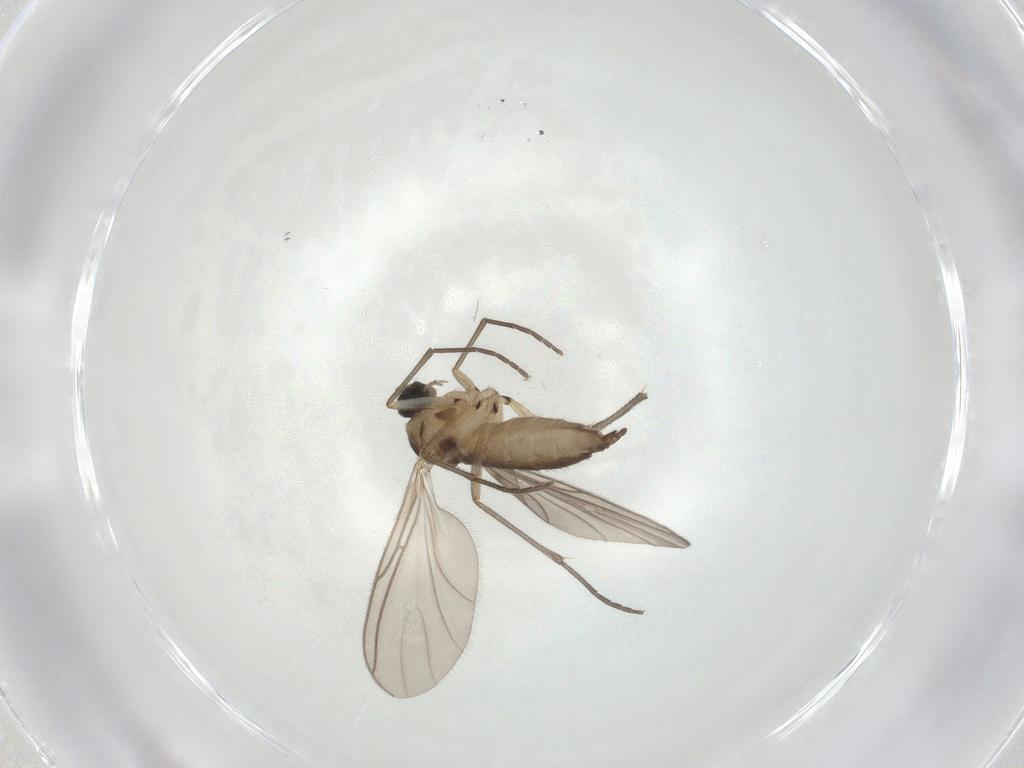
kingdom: Animalia
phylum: Arthropoda
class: Insecta
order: Diptera
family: Sciaridae
